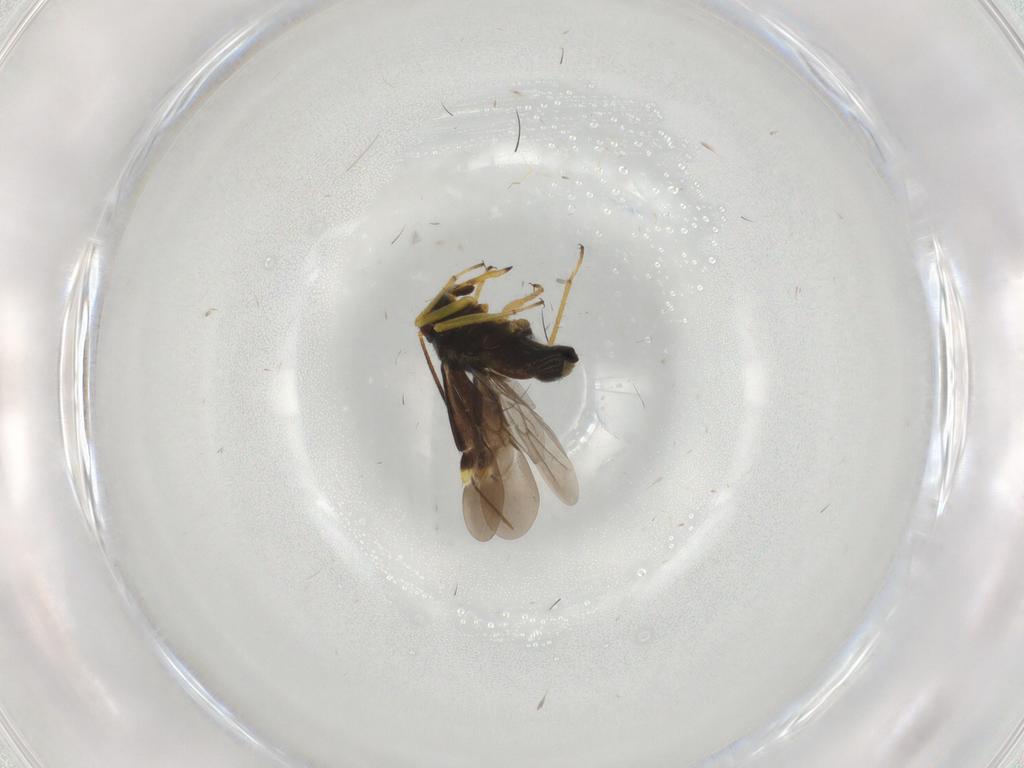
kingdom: Animalia
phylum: Arthropoda
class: Insecta
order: Hemiptera
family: Miridae
